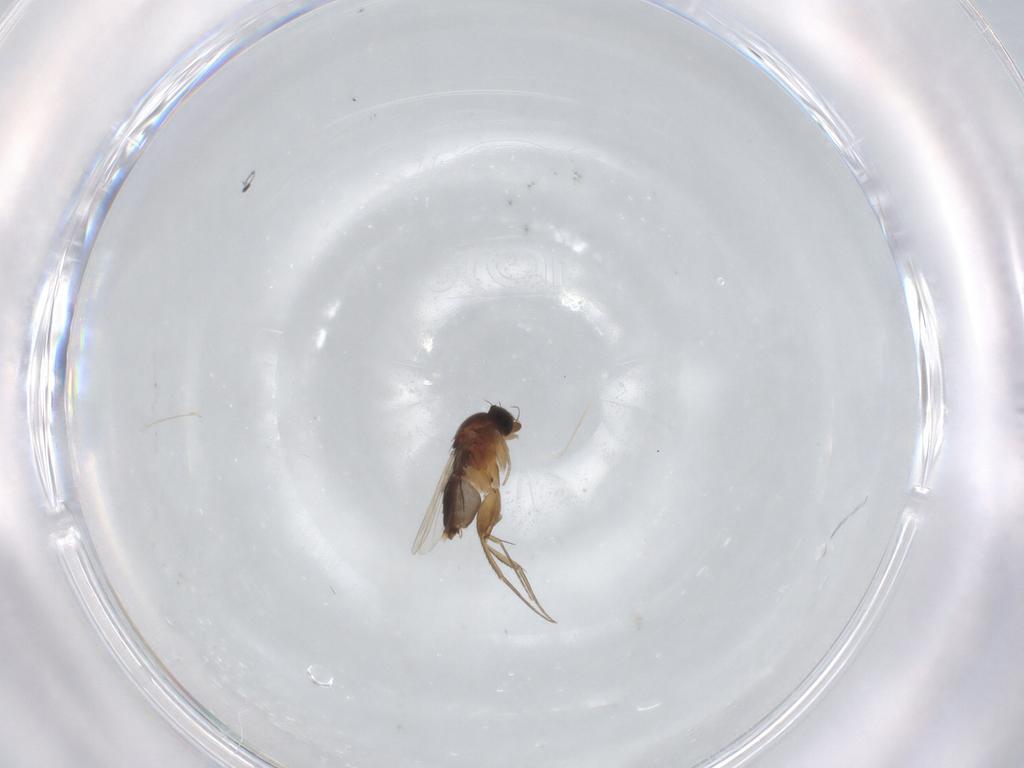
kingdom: Animalia
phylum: Arthropoda
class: Insecta
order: Diptera
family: Phoridae
